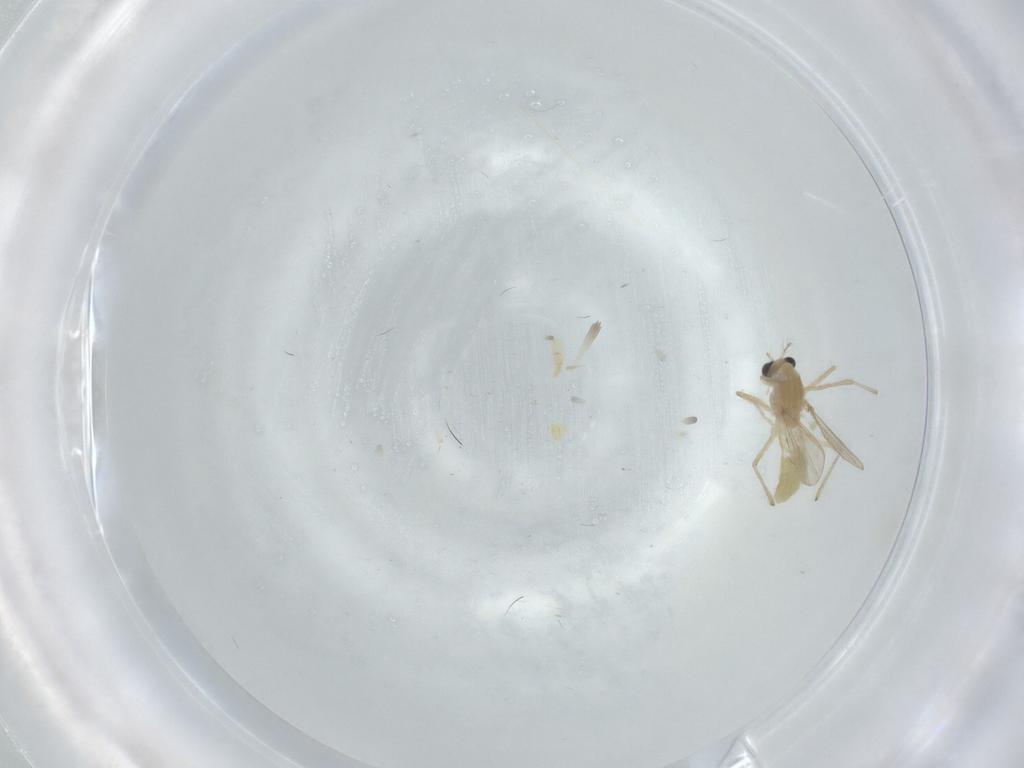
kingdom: Animalia
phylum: Arthropoda
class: Insecta
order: Diptera
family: Chironomidae
